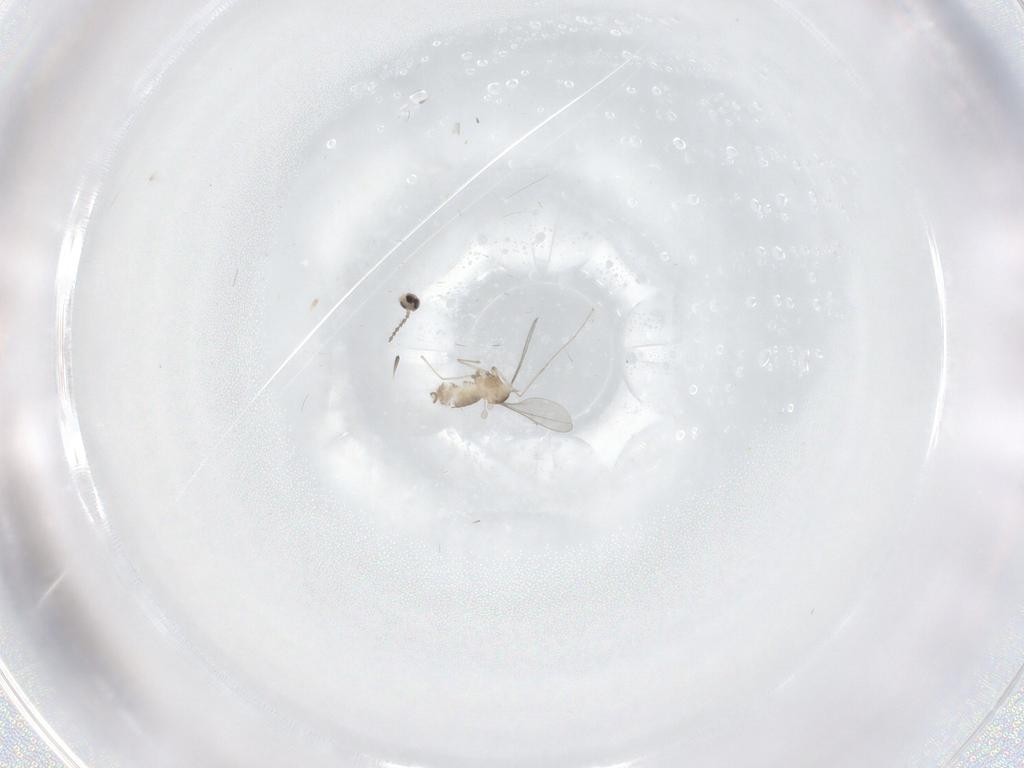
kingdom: Animalia
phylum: Arthropoda
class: Insecta
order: Diptera
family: Cecidomyiidae
